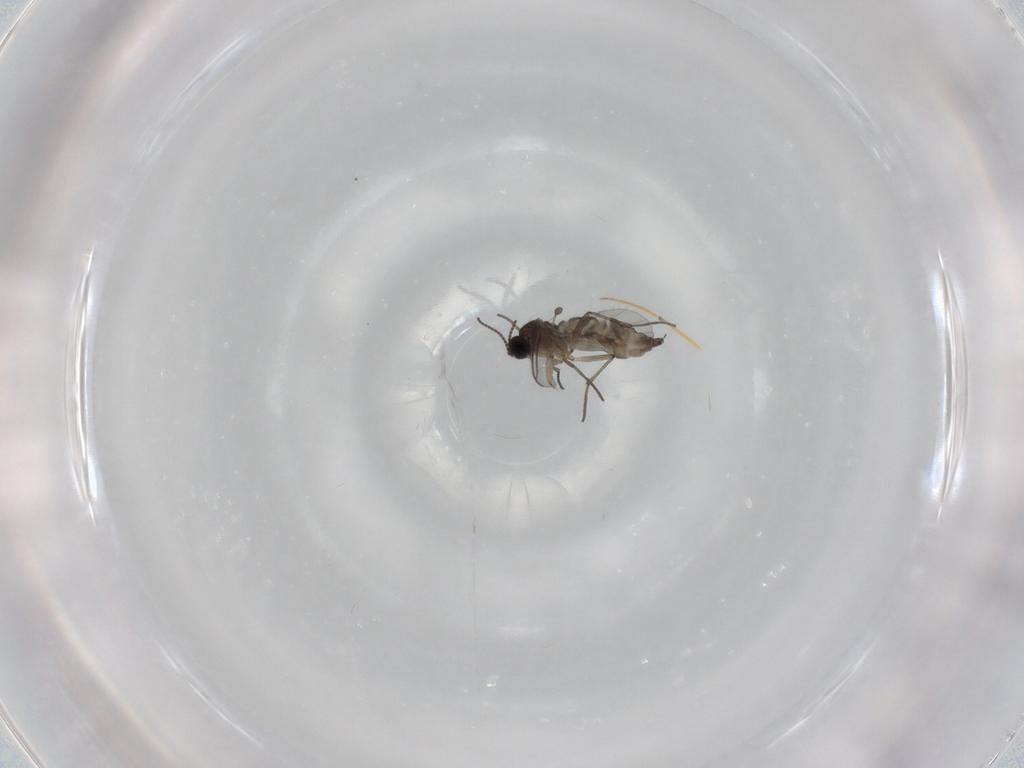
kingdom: Animalia
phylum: Arthropoda
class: Insecta
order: Diptera
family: Sciaridae
